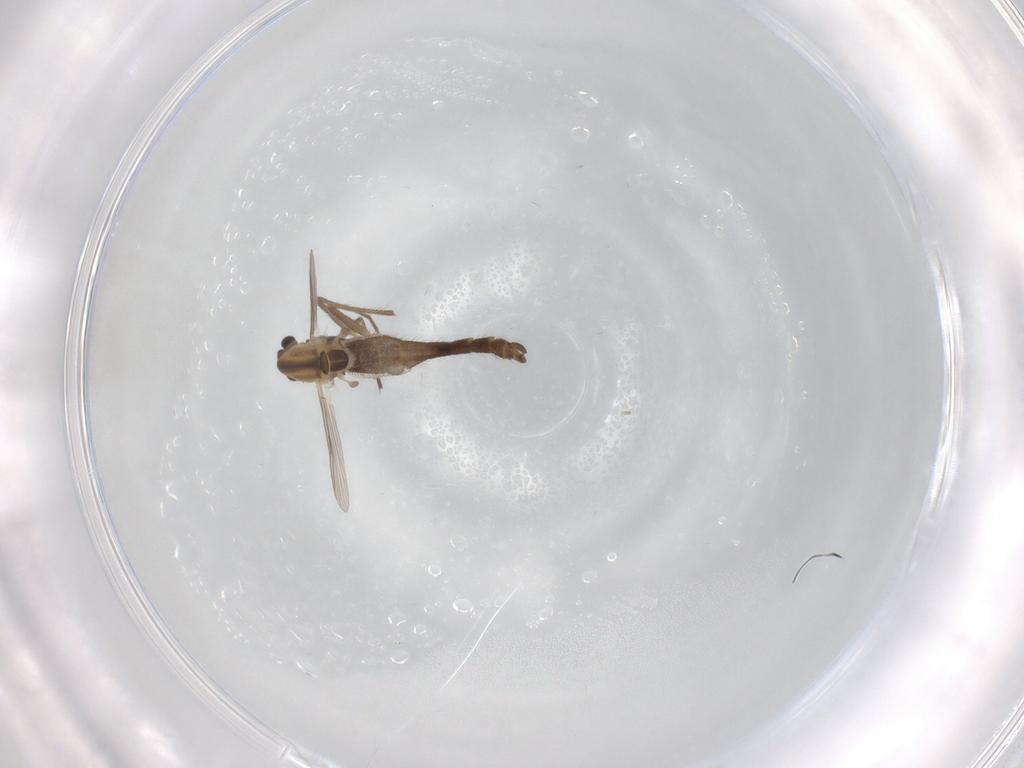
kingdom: Animalia
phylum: Arthropoda
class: Insecta
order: Diptera
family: Chironomidae
